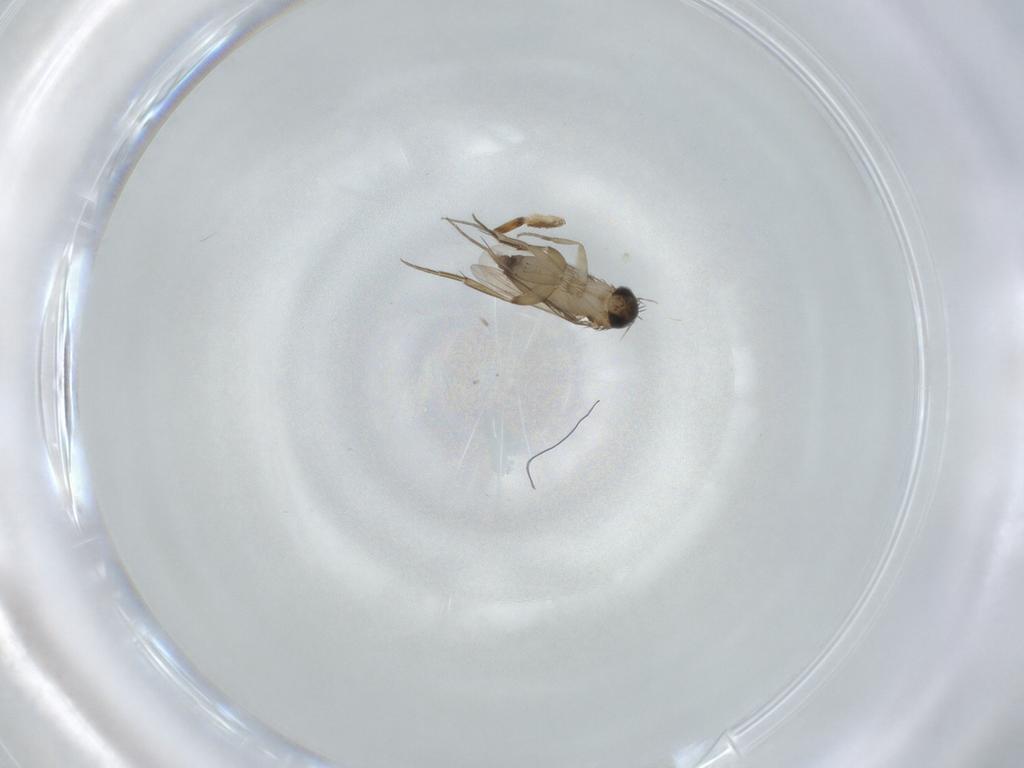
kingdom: Animalia
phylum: Arthropoda
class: Insecta
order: Diptera
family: Phoridae
